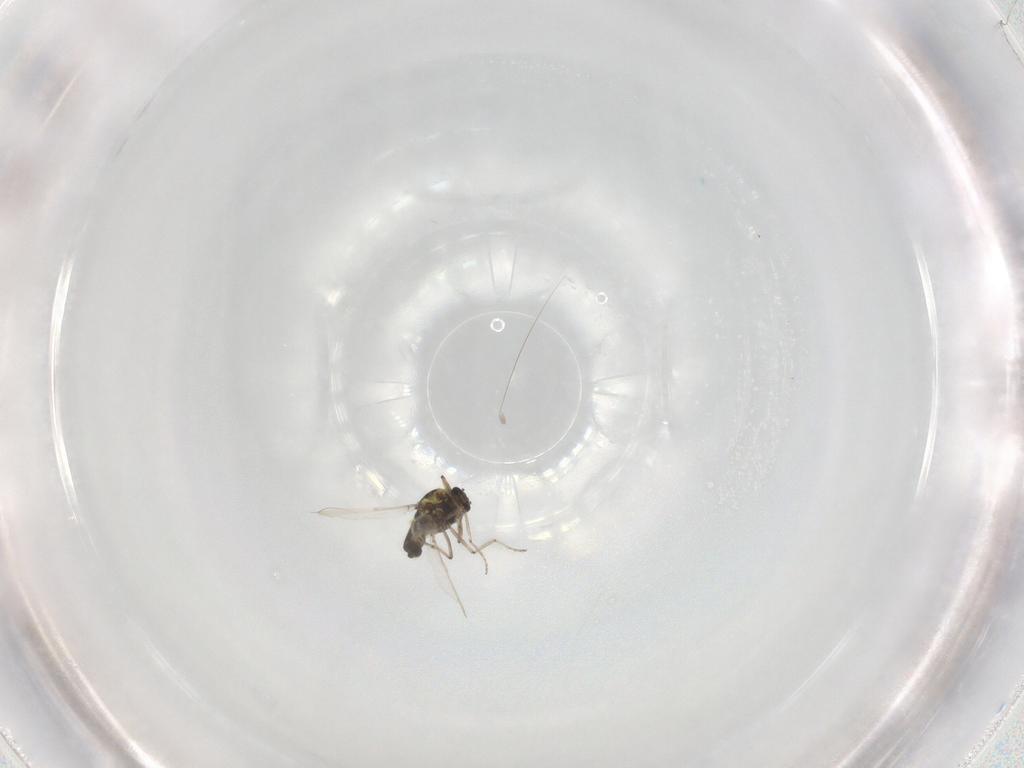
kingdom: Animalia
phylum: Arthropoda
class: Insecta
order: Diptera
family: Ceratopogonidae
